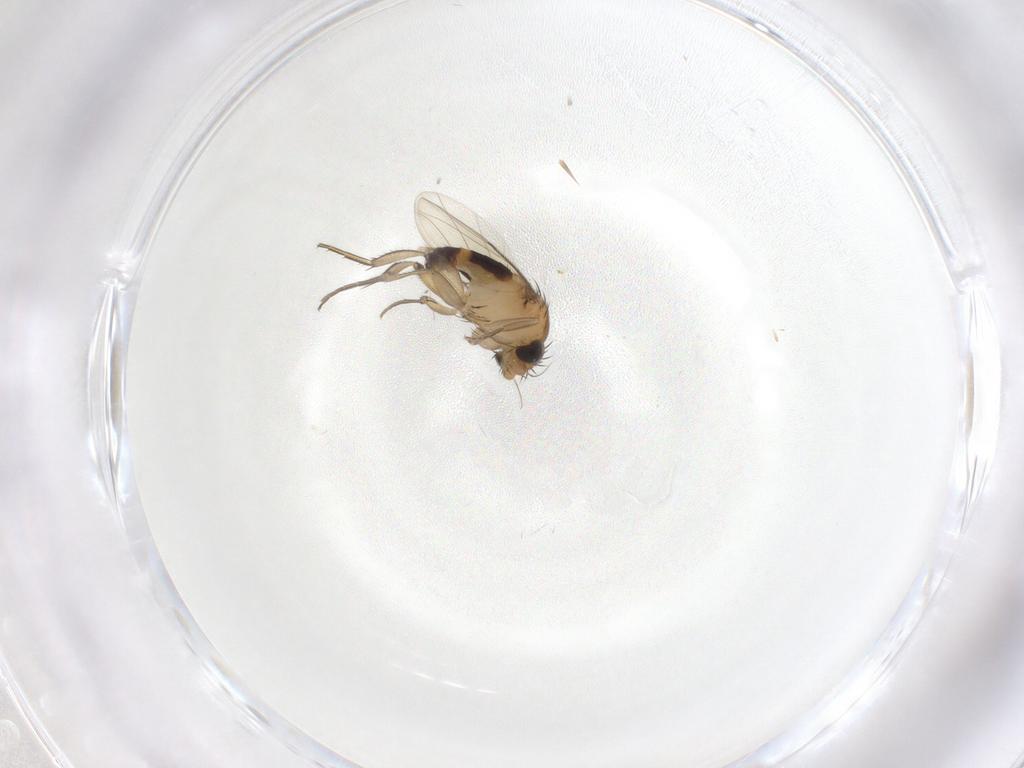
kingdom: Animalia
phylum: Arthropoda
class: Insecta
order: Diptera
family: Phoridae
